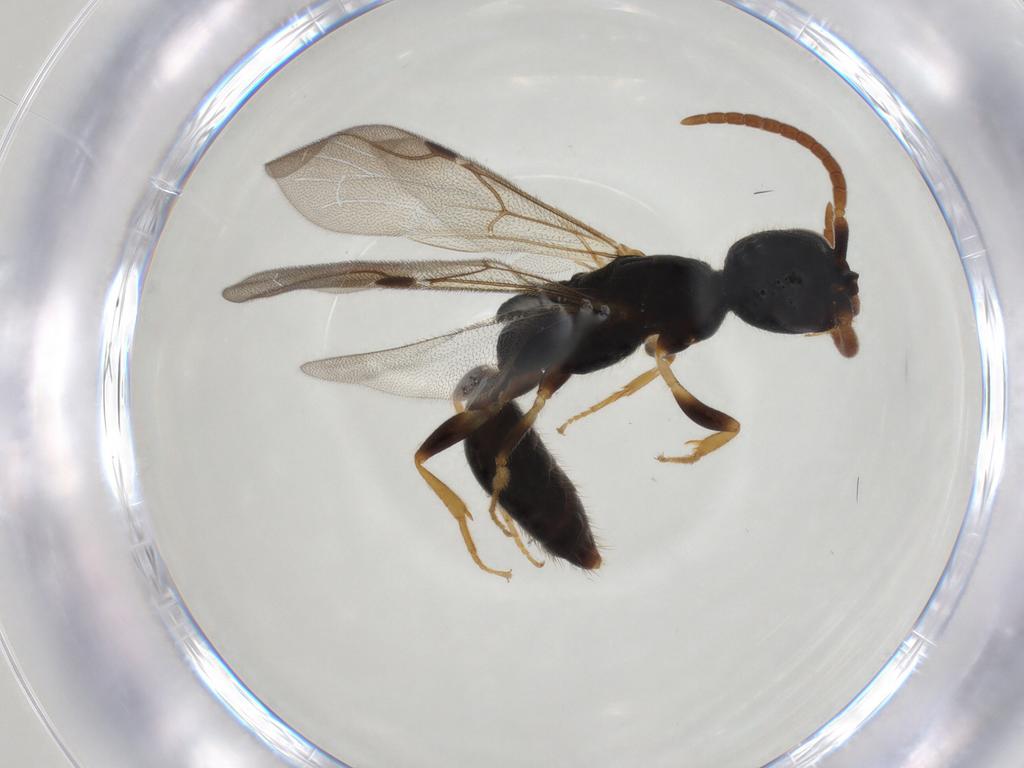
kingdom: Animalia
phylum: Arthropoda
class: Insecta
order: Hymenoptera
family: Bethylidae
